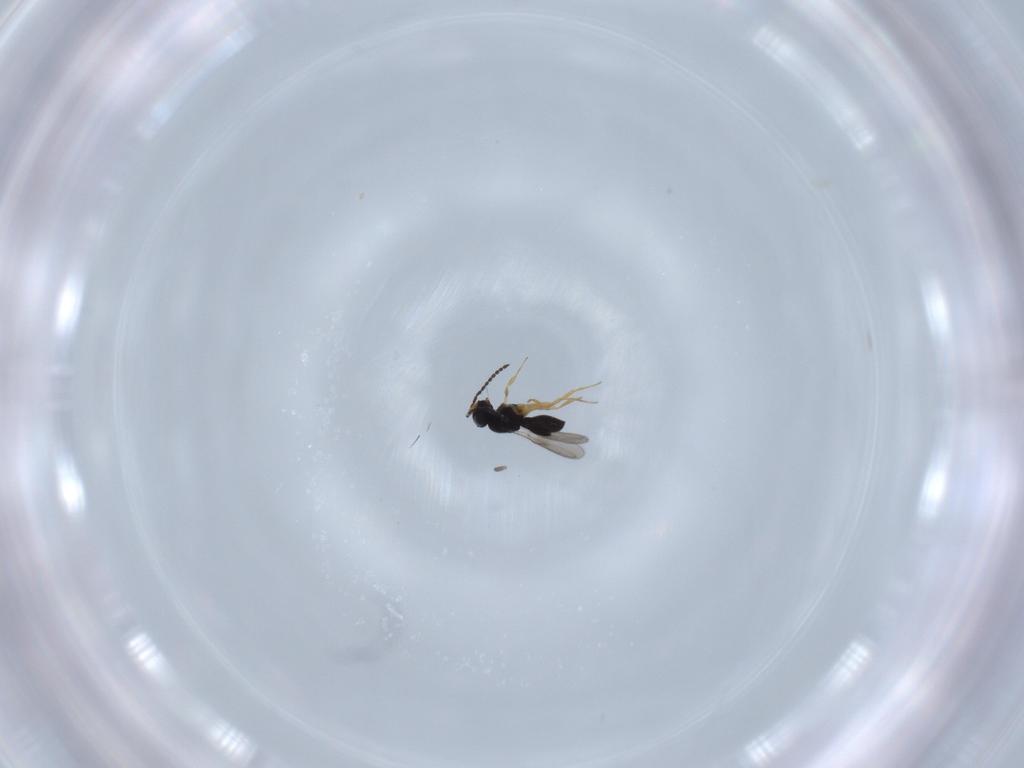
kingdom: Animalia
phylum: Arthropoda
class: Insecta
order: Hymenoptera
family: Scelionidae
